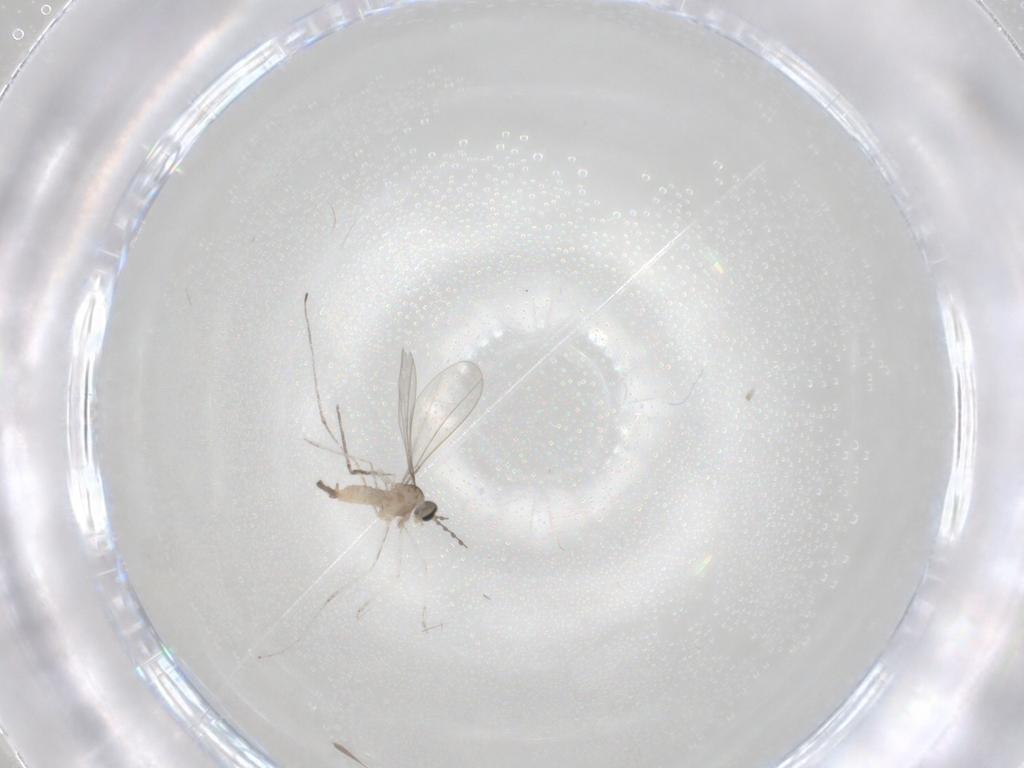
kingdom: Animalia
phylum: Arthropoda
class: Insecta
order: Diptera
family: Cecidomyiidae
